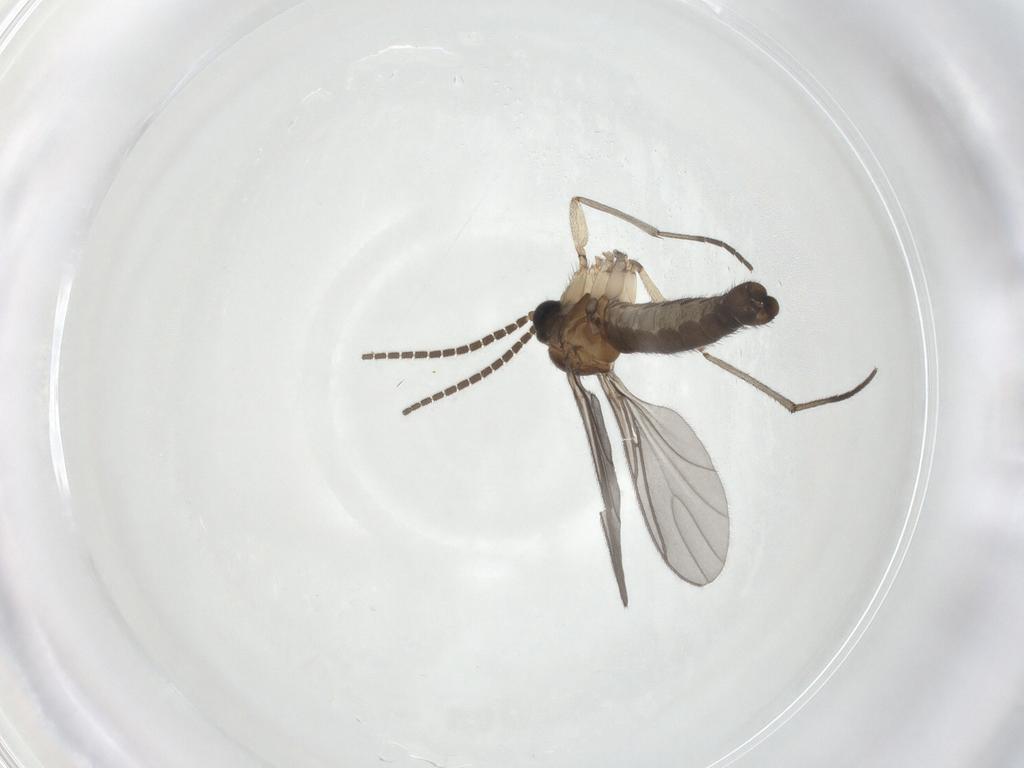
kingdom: Animalia
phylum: Arthropoda
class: Insecta
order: Diptera
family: Sciaridae
